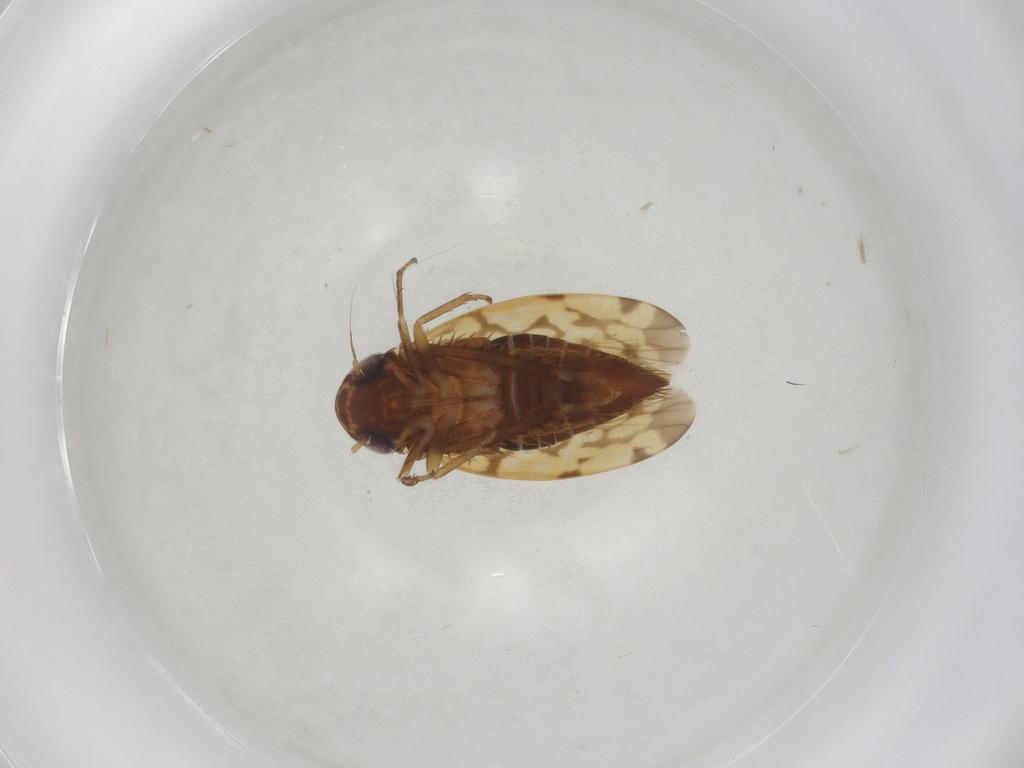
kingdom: Animalia
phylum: Arthropoda
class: Insecta
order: Hemiptera
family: Cicadellidae
